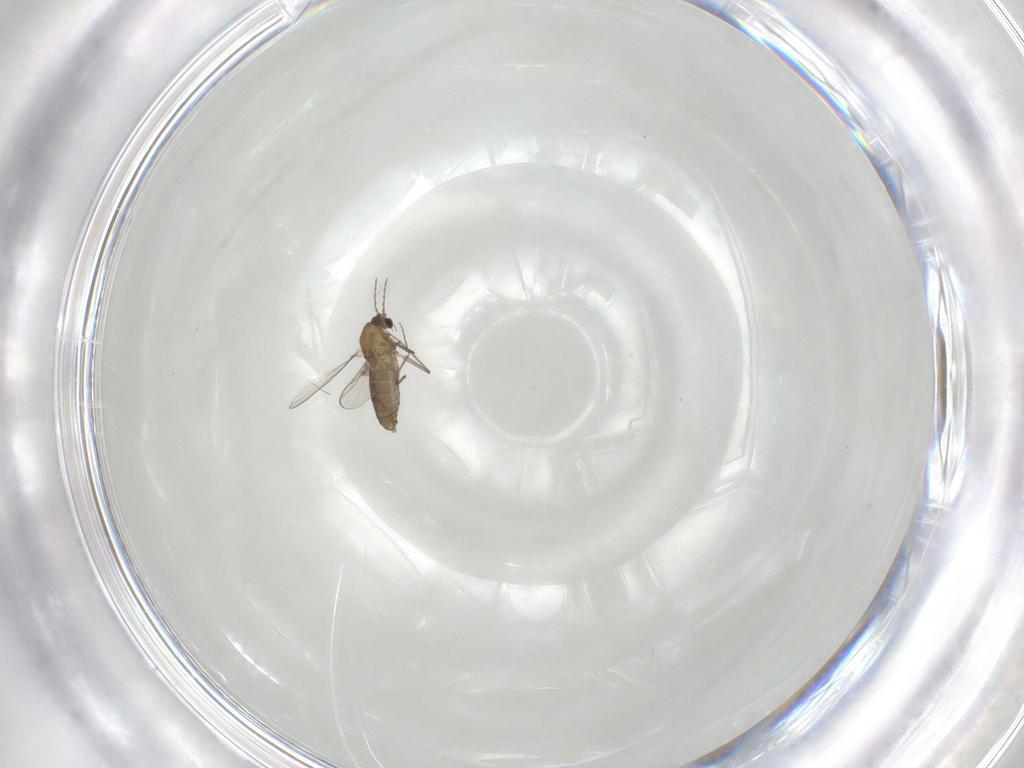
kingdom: Animalia
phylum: Arthropoda
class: Insecta
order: Diptera
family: Chironomidae
